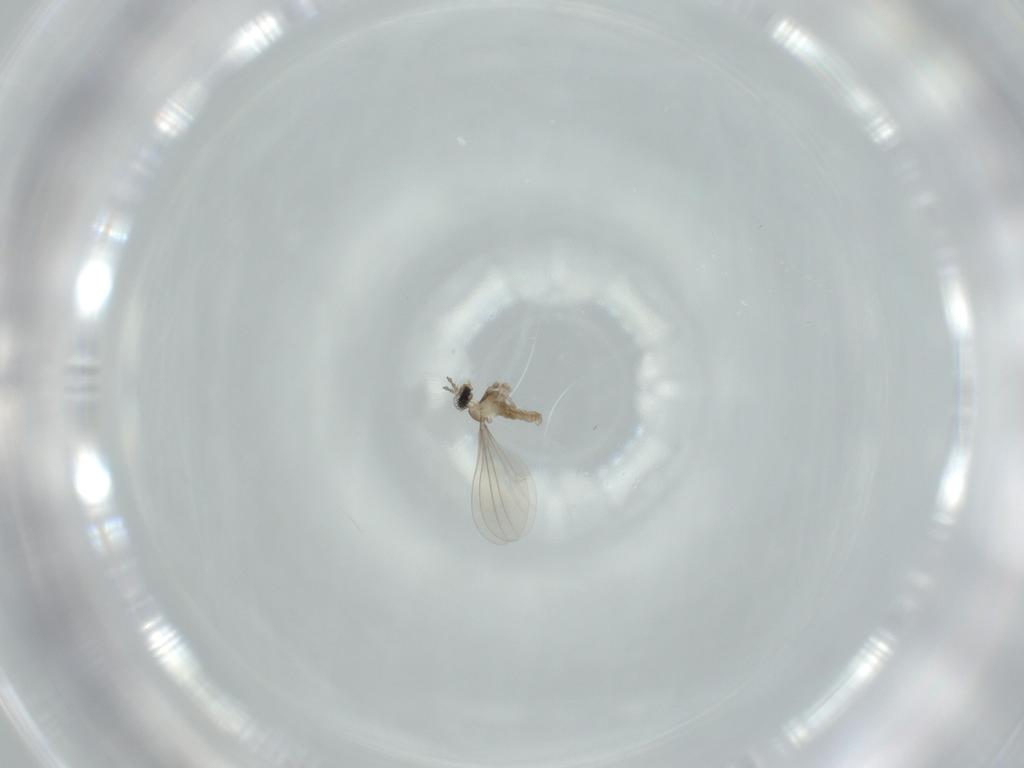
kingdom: Animalia
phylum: Arthropoda
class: Insecta
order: Diptera
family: Cecidomyiidae
